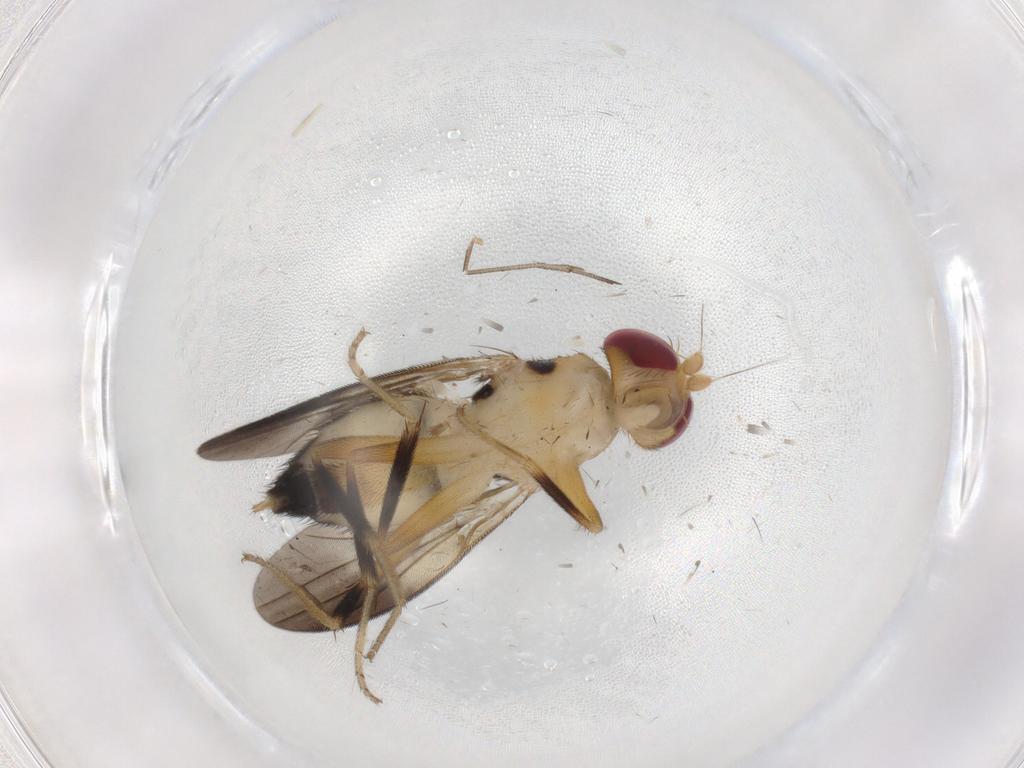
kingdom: Animalia
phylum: Arthropoda
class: Insecta
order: Diptera
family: Clusiidae
